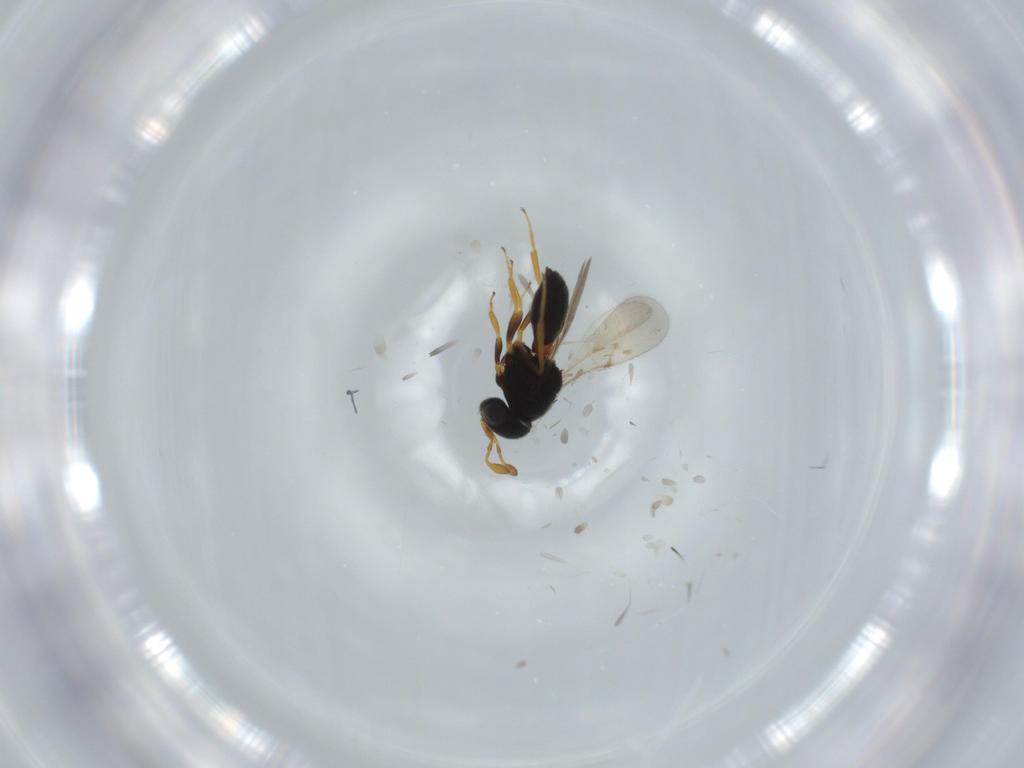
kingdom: Animalia
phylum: Arthropoda
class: Insecta
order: Hymenoptera
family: Scelionidae
